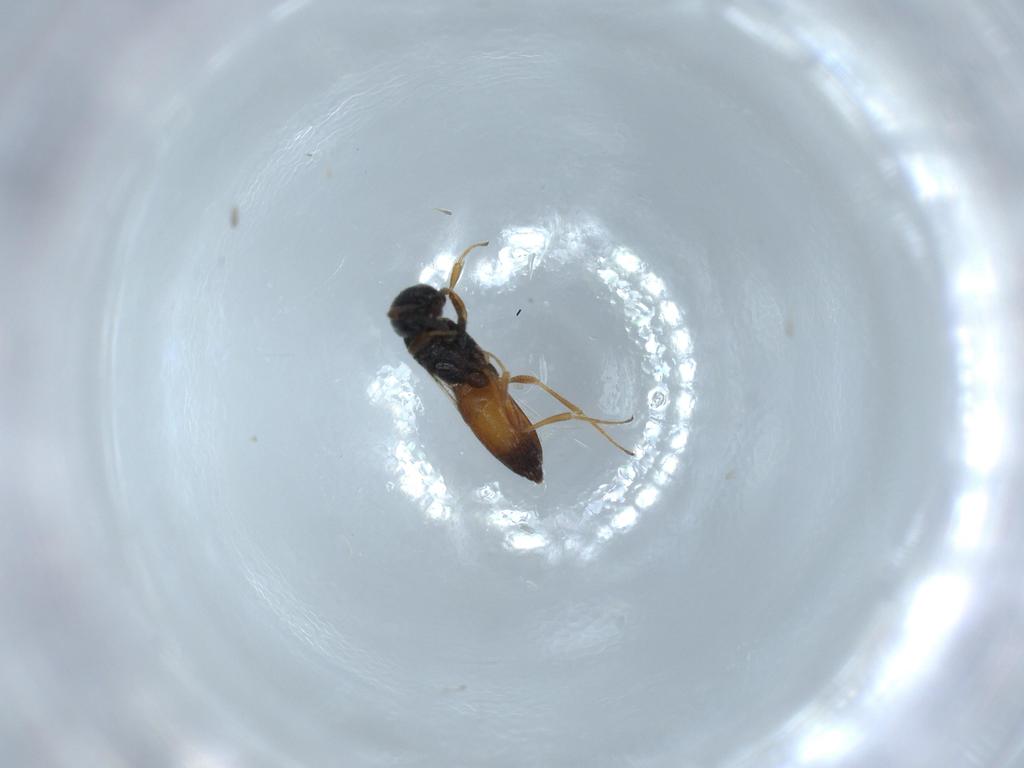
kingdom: Animalia
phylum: Arthropoda
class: Insecta
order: Hymenoptera
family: Scelionidae
